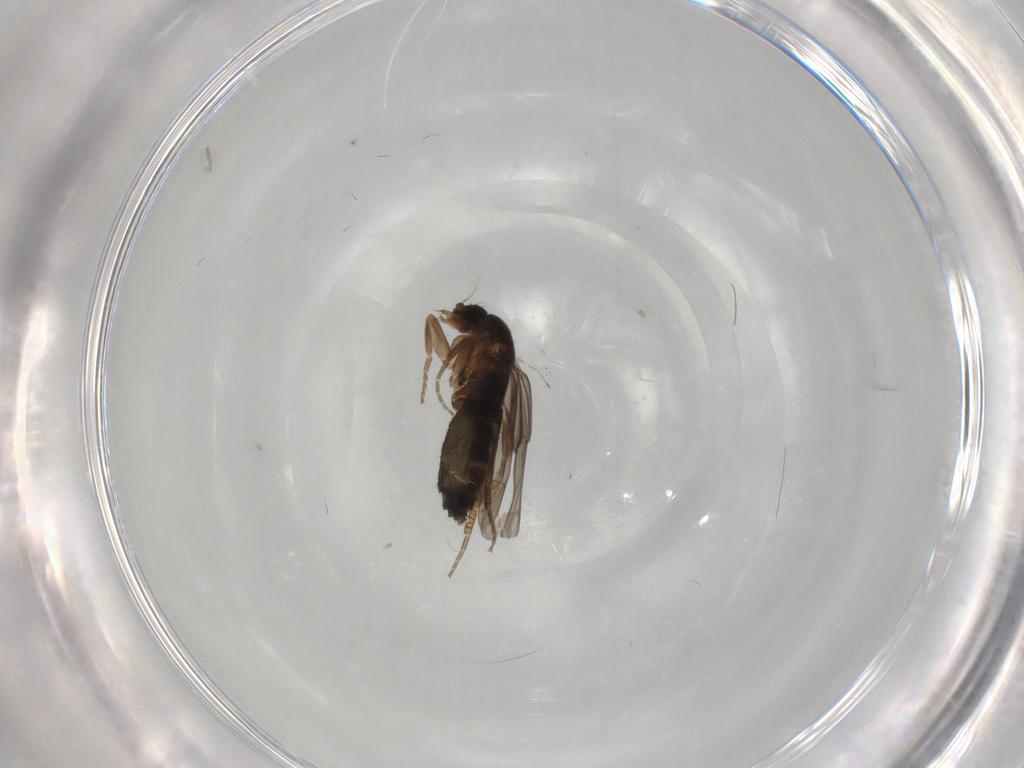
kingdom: Animalia
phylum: Arthropoda
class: Insecta
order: Diptera
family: Phoridae
